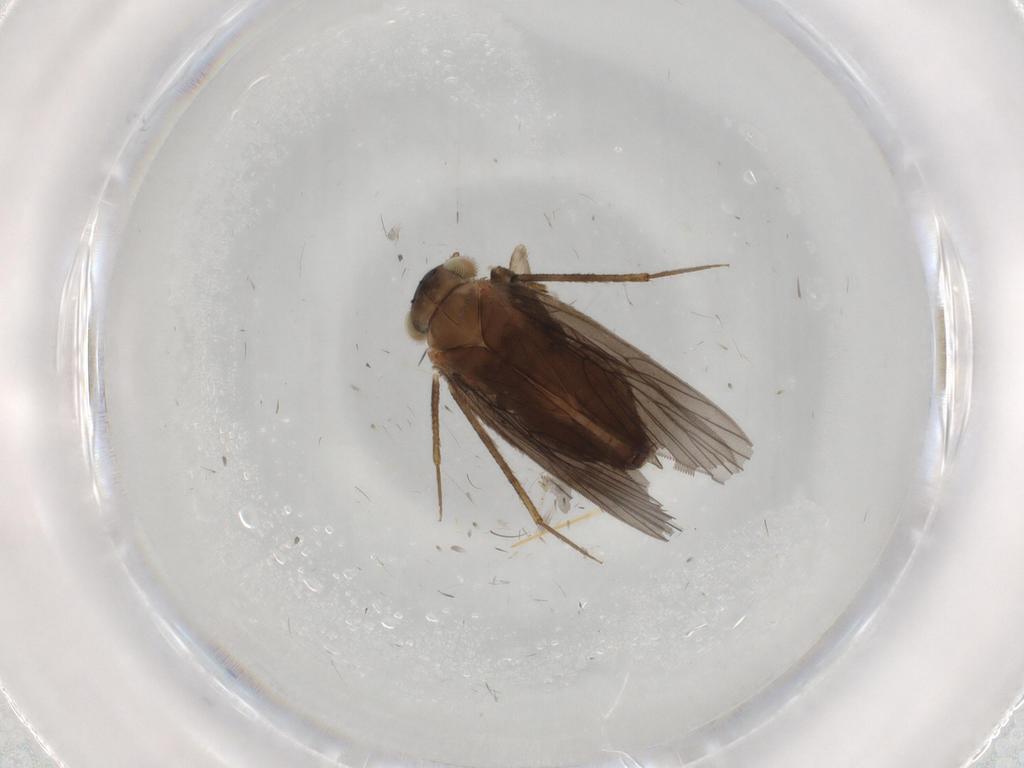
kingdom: Animalia
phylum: Arthropoda
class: Insecta
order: Psocodea
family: Lepidopsocidae
